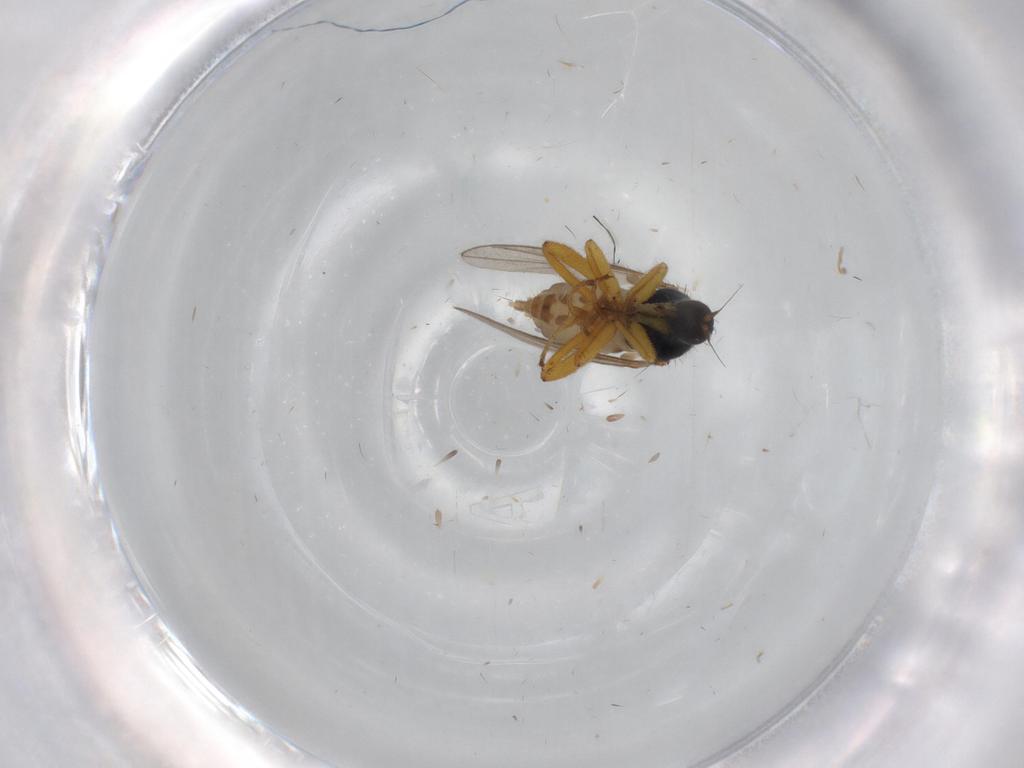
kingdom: Animalia
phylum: Arthropoda
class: Insecta
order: Diptera
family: Hybotidae
